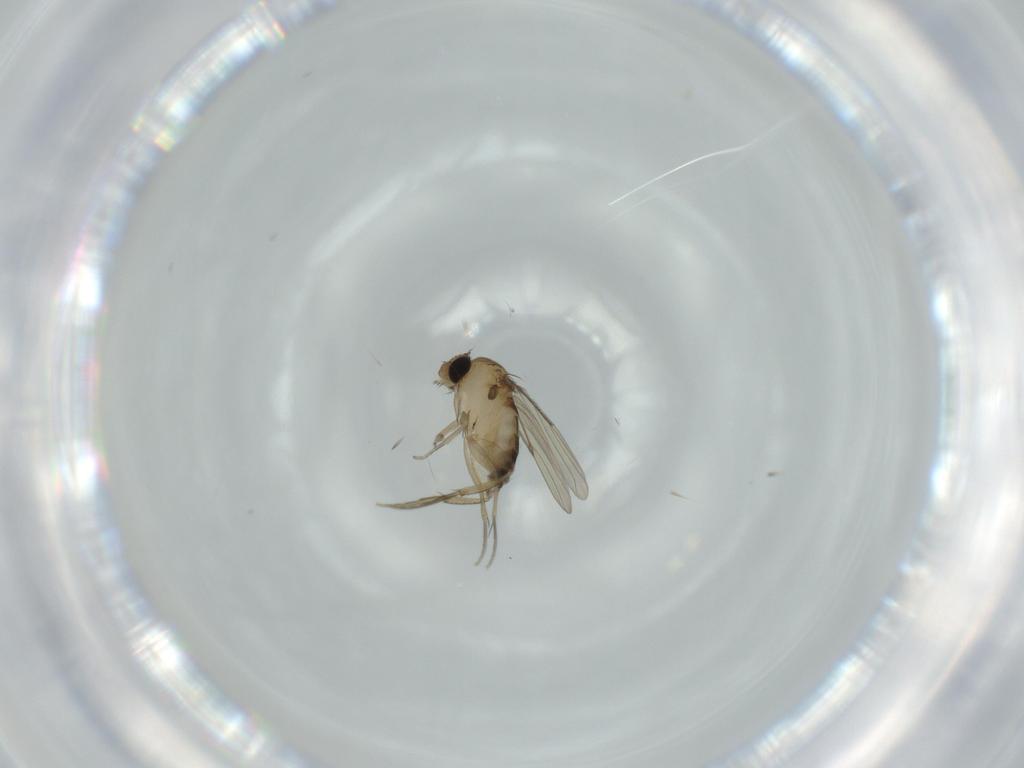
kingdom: Animalia
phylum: Arthropoda
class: Insecta
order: Diptera
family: Phoridae
